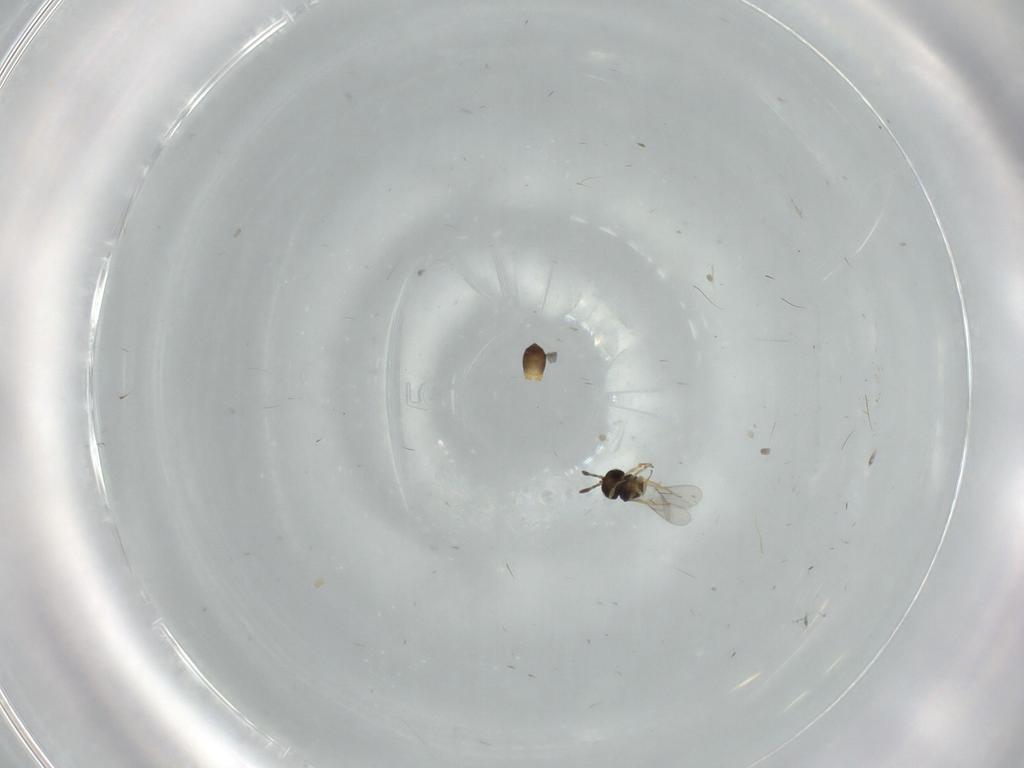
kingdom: Animalia
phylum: Arthropoda
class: Insecta
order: Hymenoptera
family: Scelionidae
